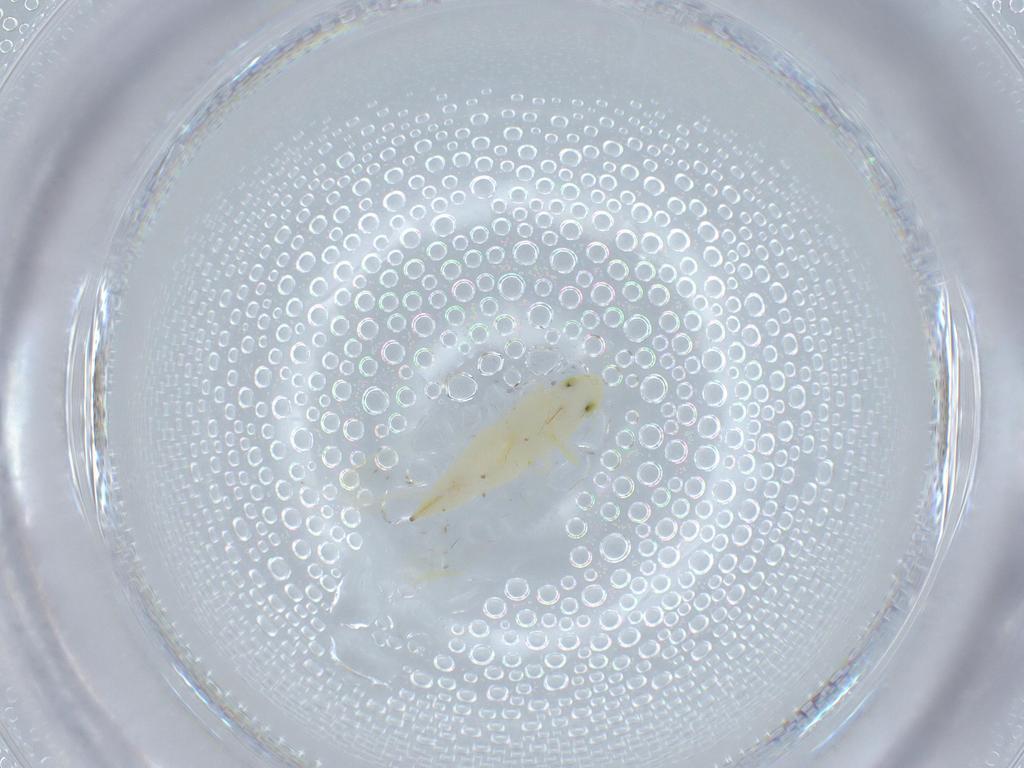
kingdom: Animalia
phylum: Arthropoda
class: Insecta
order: Hemiptera
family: Cicadellidae
